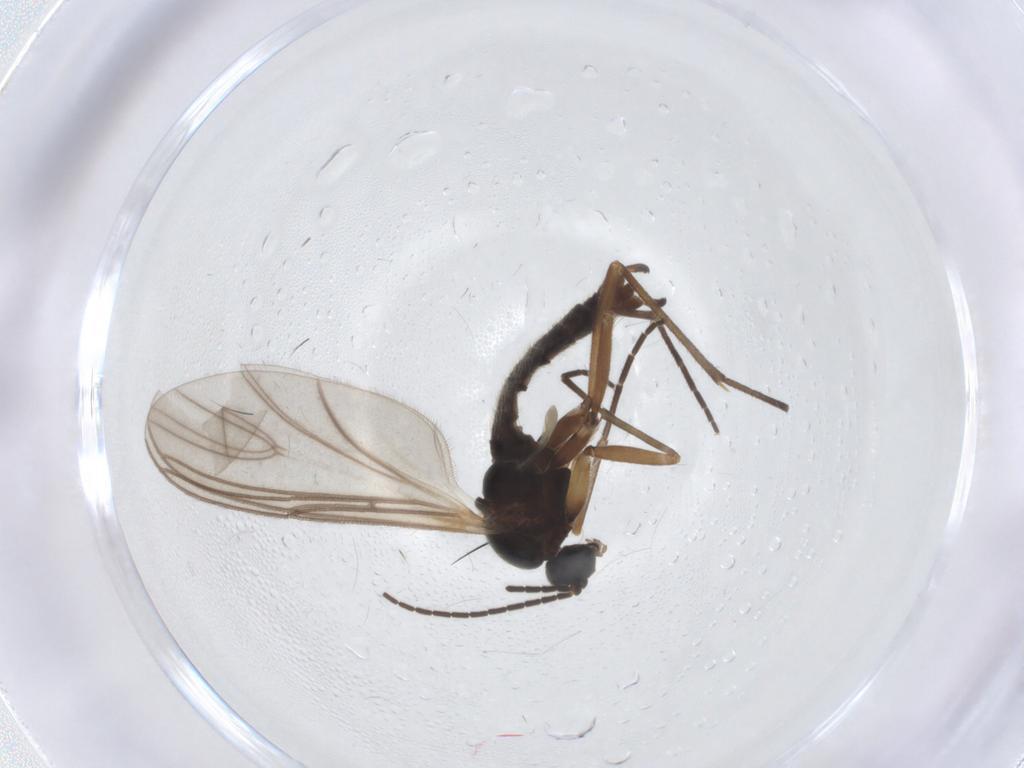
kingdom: Animalia
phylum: Arthropoda
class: Insecta
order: Diptera
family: Sciaridae
